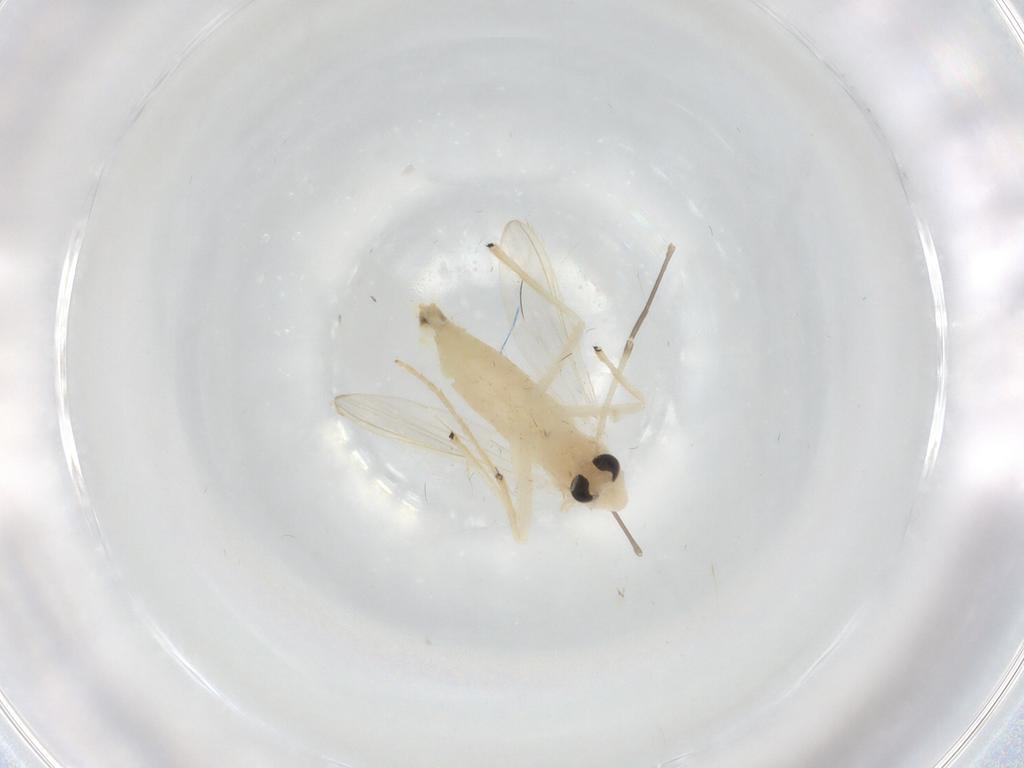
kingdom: Animalia
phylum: Arthropoda
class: Insecta
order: Diptera
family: Chironomidae
